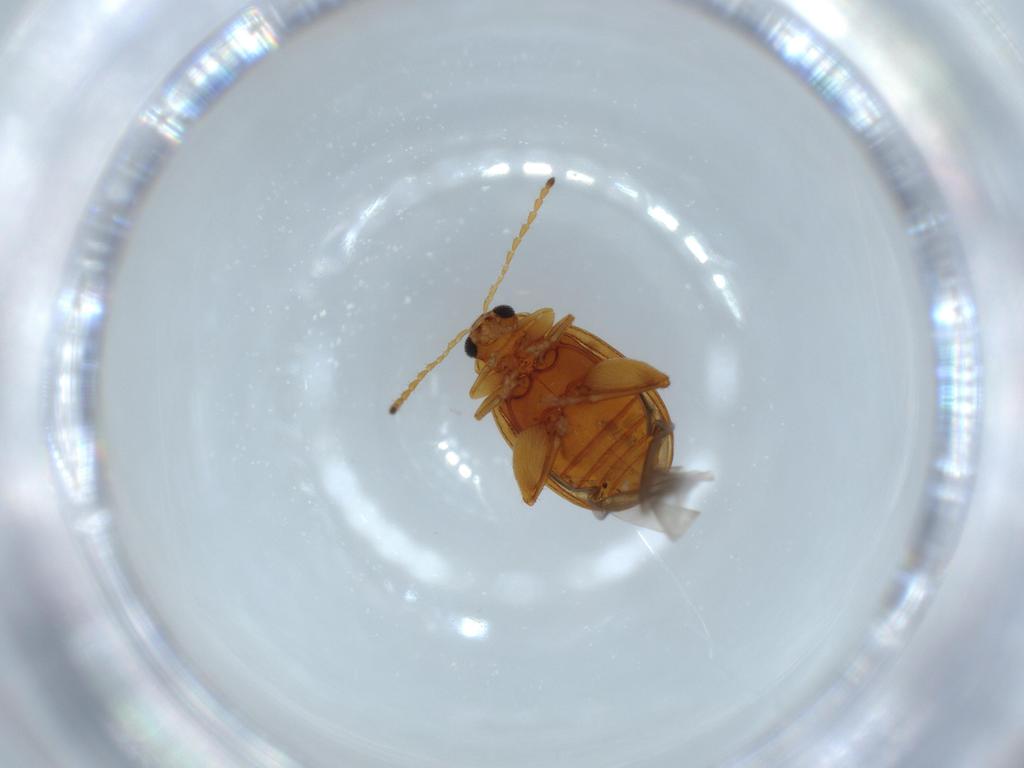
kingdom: Animalia
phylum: Arthropoda
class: Insecta
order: Coleoptera
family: Chrysomelidae
